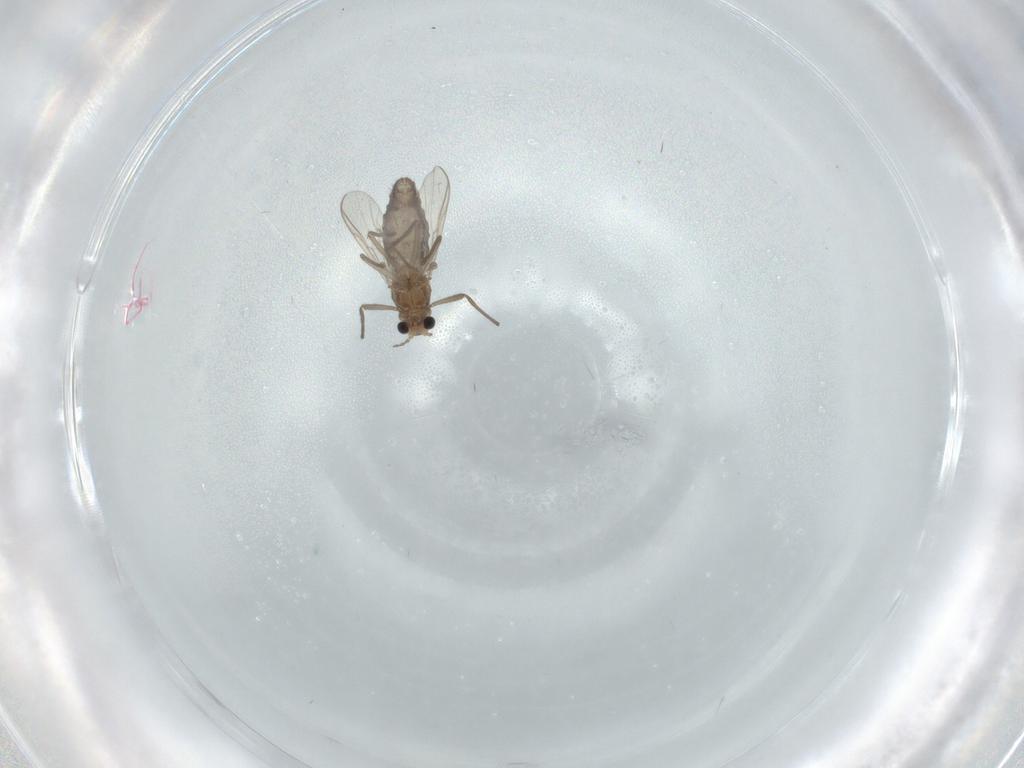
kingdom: Animalia
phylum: Arthropoda
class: Insecta
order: Diptera
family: Chironomidae
